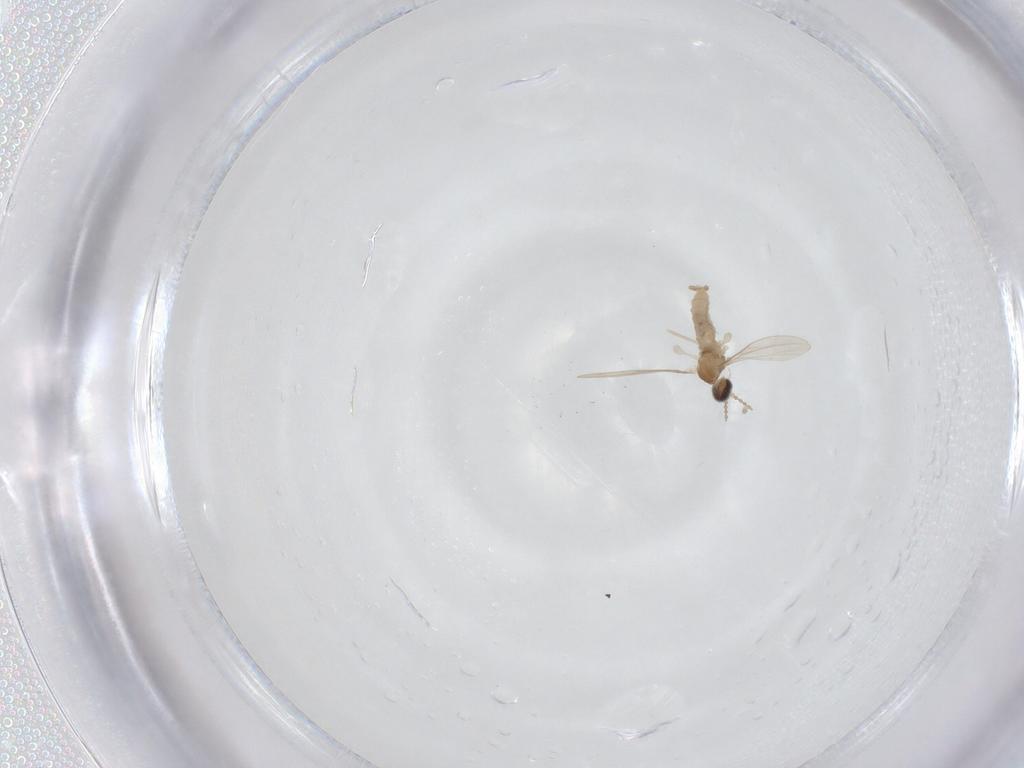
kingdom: Animalia
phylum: Arthropoda
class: Insecta
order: Diptera
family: Cecidomyiidae
